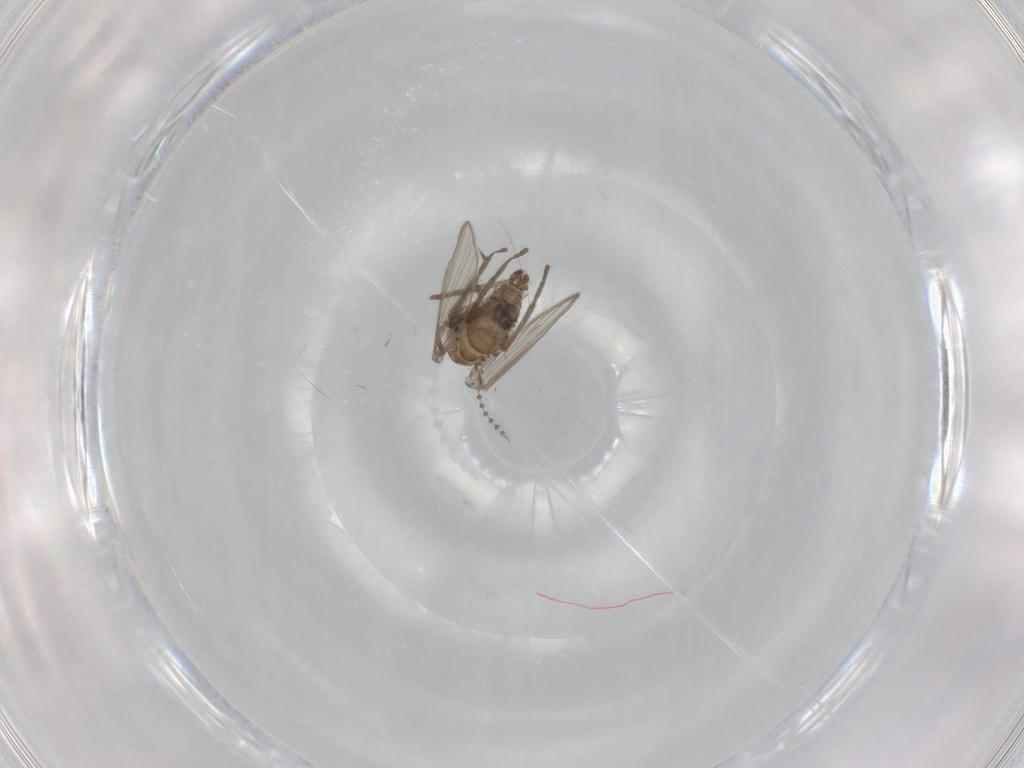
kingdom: Animalia
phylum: Arthropoda
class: Insecta
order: Diptera
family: Psychodidae
